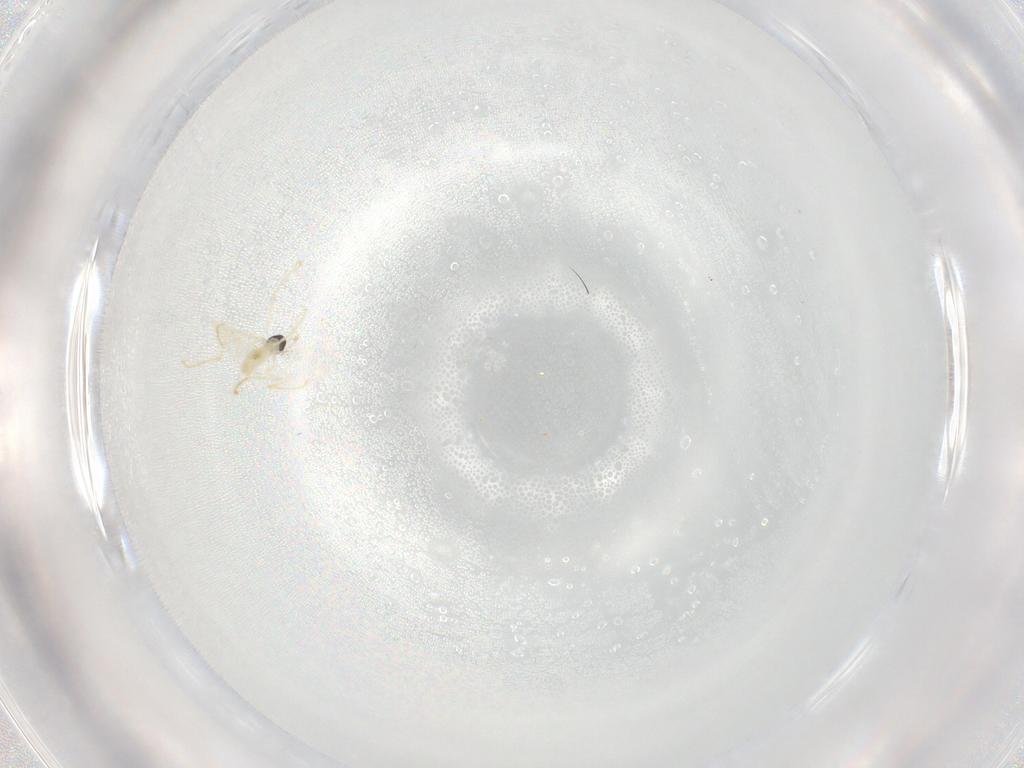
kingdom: Animalia
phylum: Arthropoda
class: Insecta
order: Diptera
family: Cecidomyiidae
